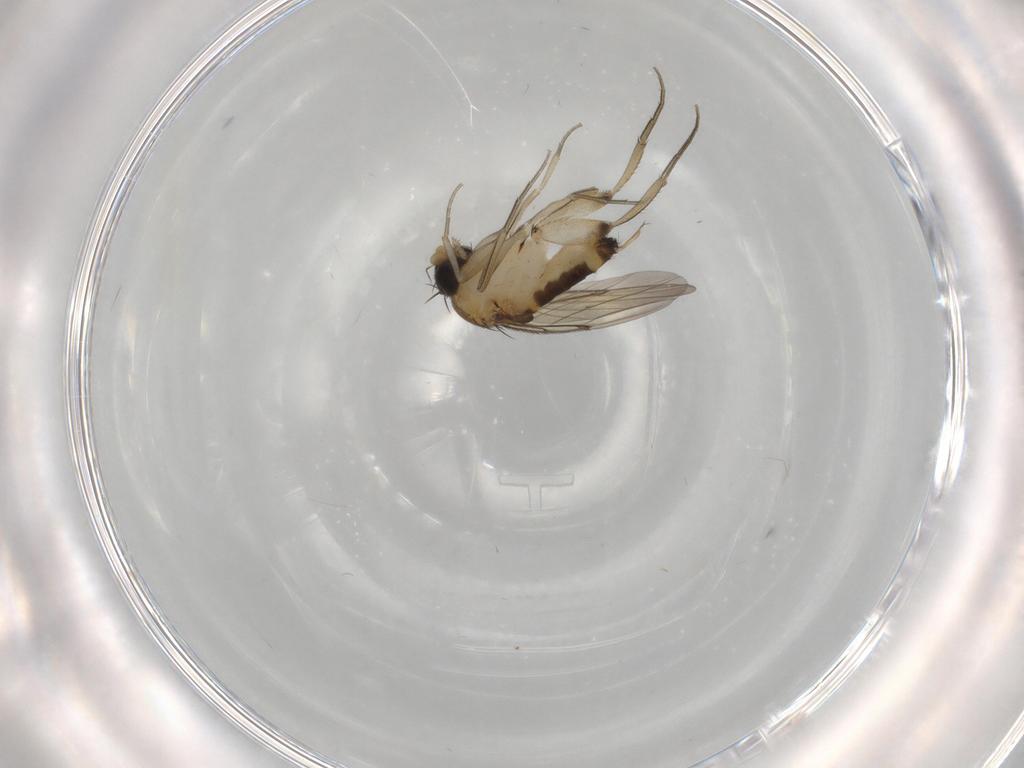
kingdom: Animalia
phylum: Arthropoda
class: Insecta
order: Diptera
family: Phoridae
